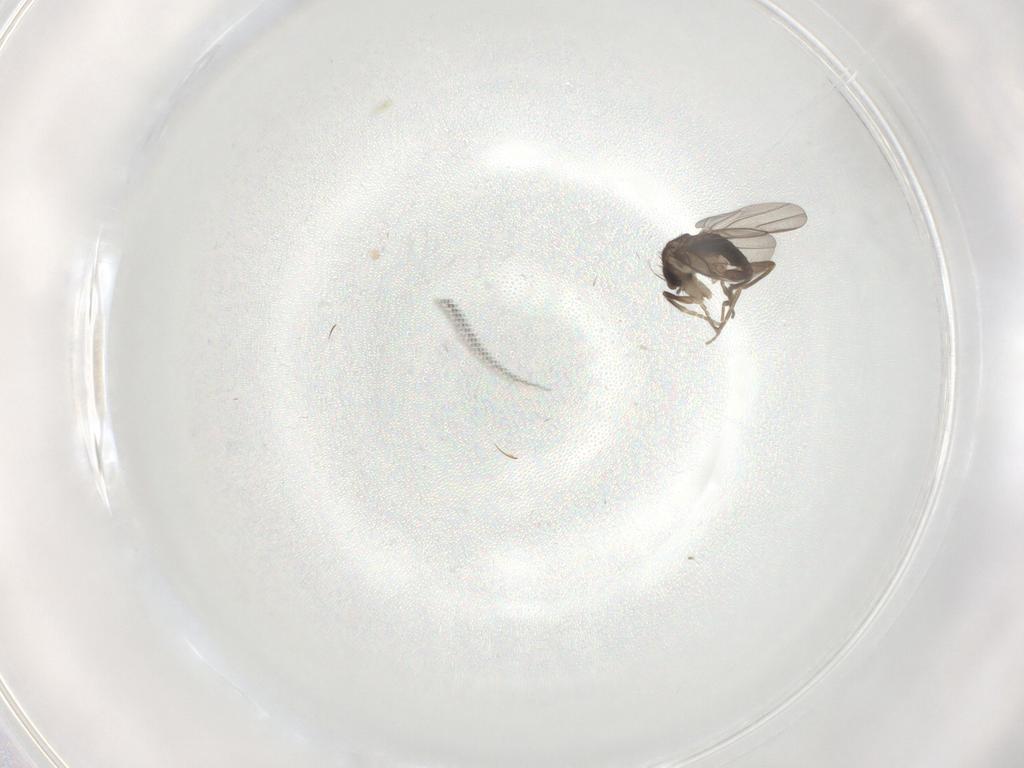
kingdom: Animalia
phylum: Arthropoda
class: Insecta
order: Diptera
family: Phoridae
